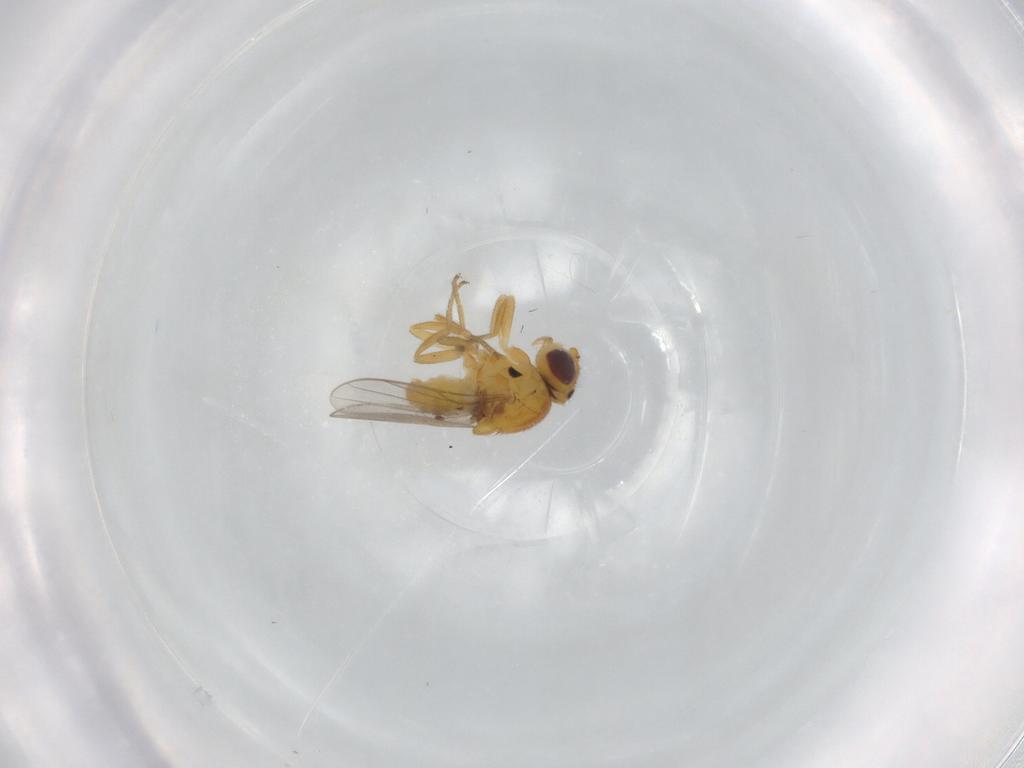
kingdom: Animalia
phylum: Arthropoda
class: Insecta
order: Diptera
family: Chloropidae
